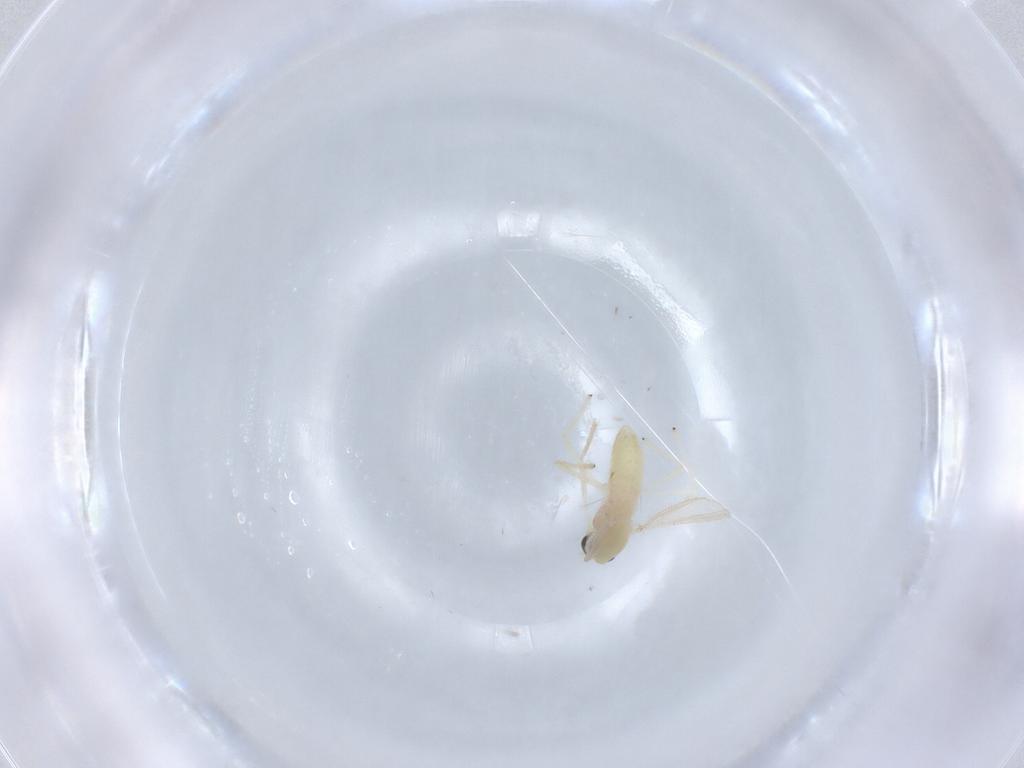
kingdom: Animalia
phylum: Arthropoda
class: Insecta
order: Diptera
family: Chironomidae
